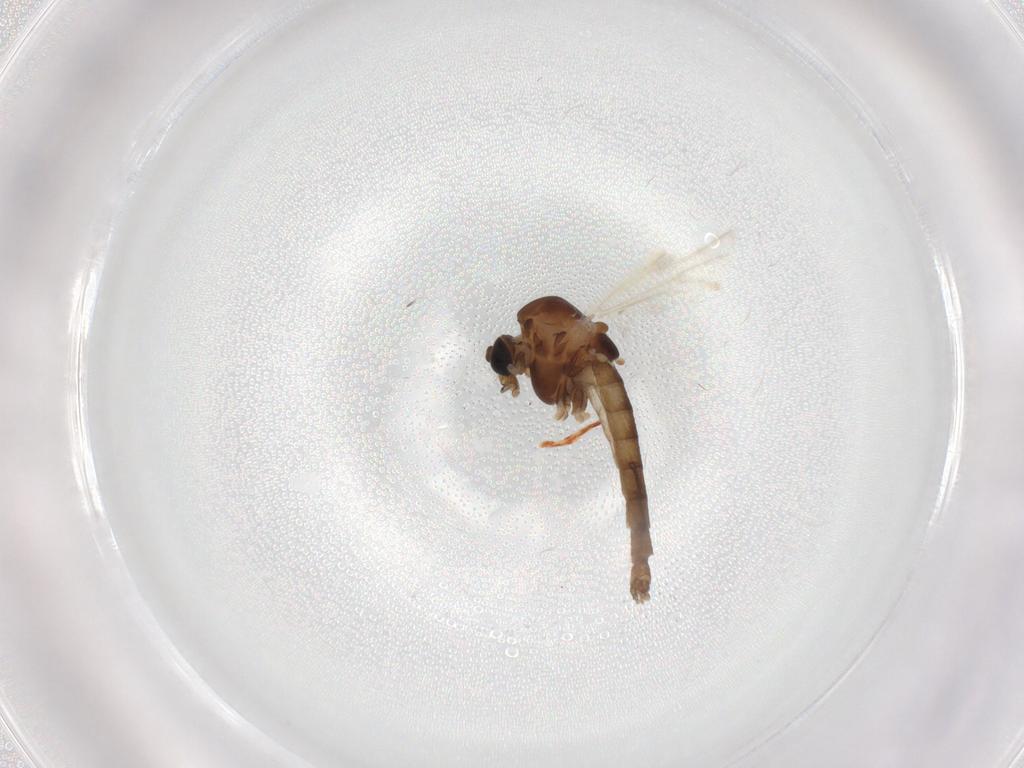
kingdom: Animalia
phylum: Arthropoda
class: Insecta
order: Diptera
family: Chironomidae
